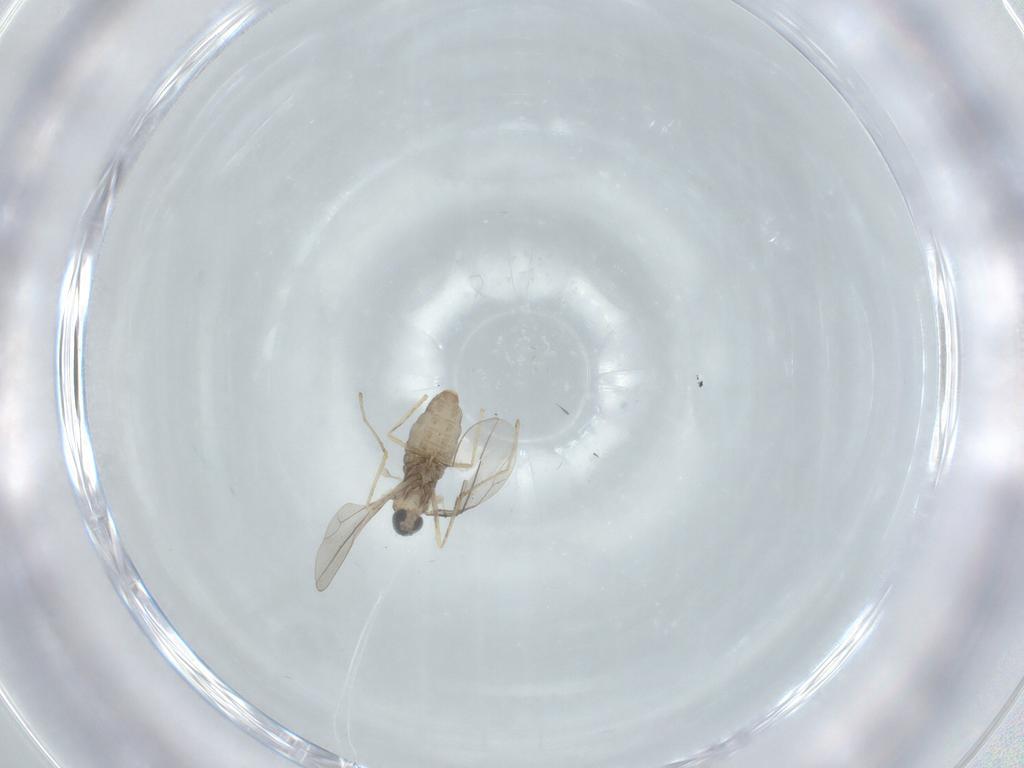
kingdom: Animalia
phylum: Arthropoda
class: Insecta
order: Diptera
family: Cecidomyiidae
